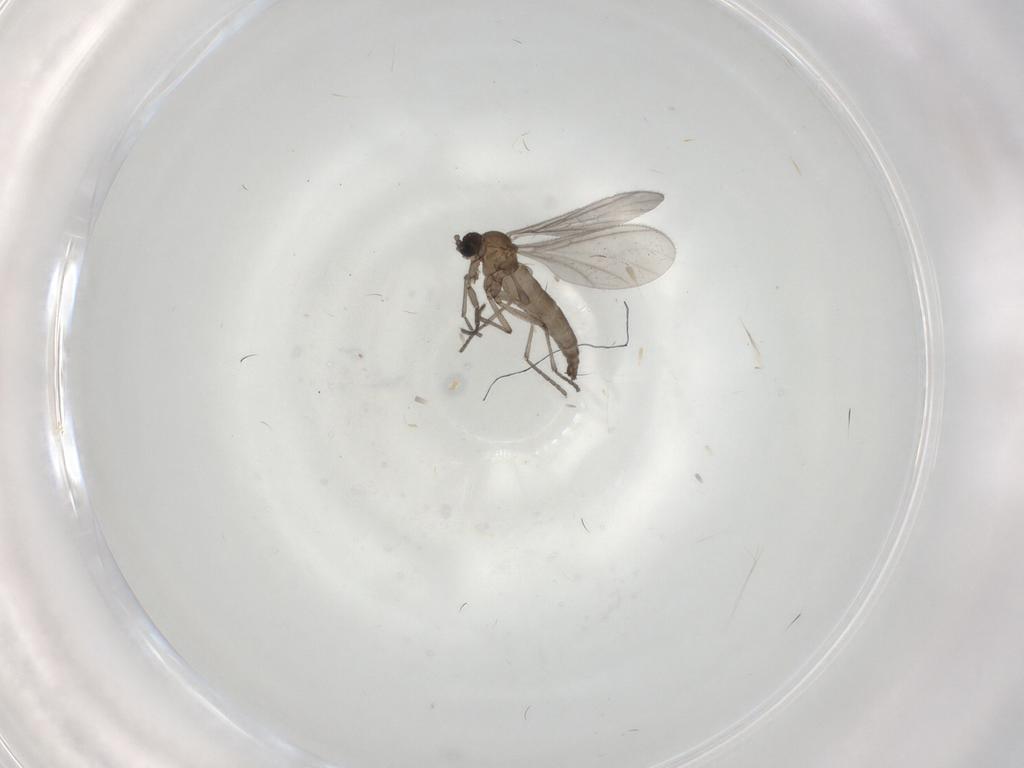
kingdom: Animalia
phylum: Arthropoda
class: Insecta
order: Diptera
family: Sciaridae
